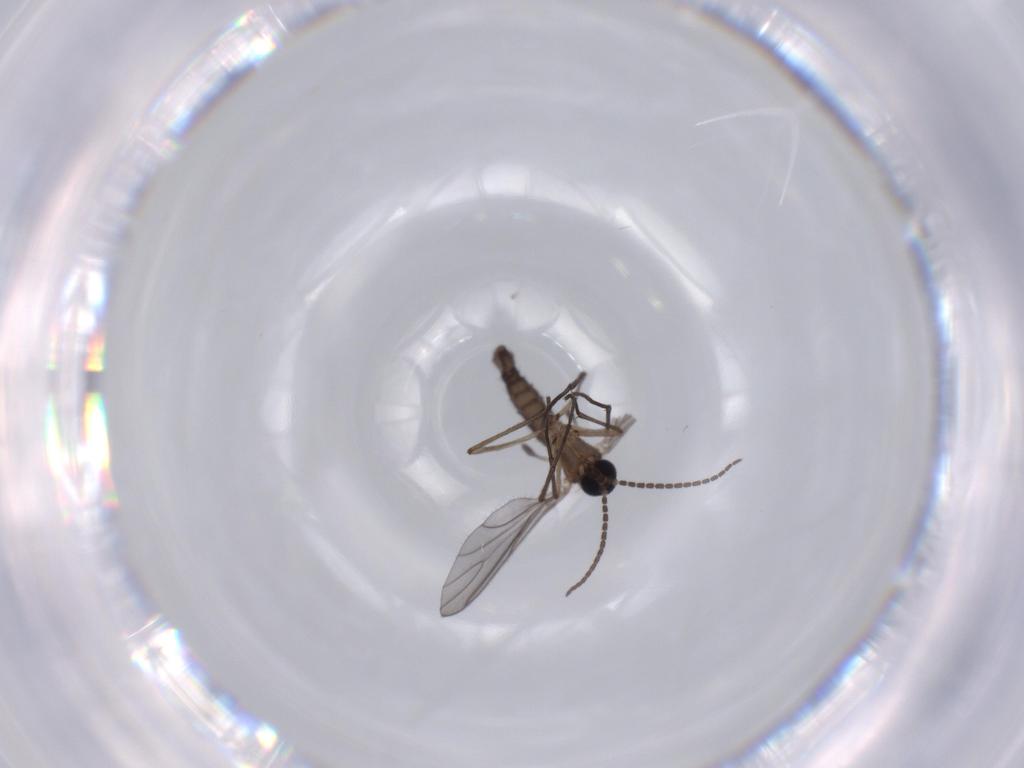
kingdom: Animalia
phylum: Arthropoda
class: Insecta
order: Diptera
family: Sciaridae
